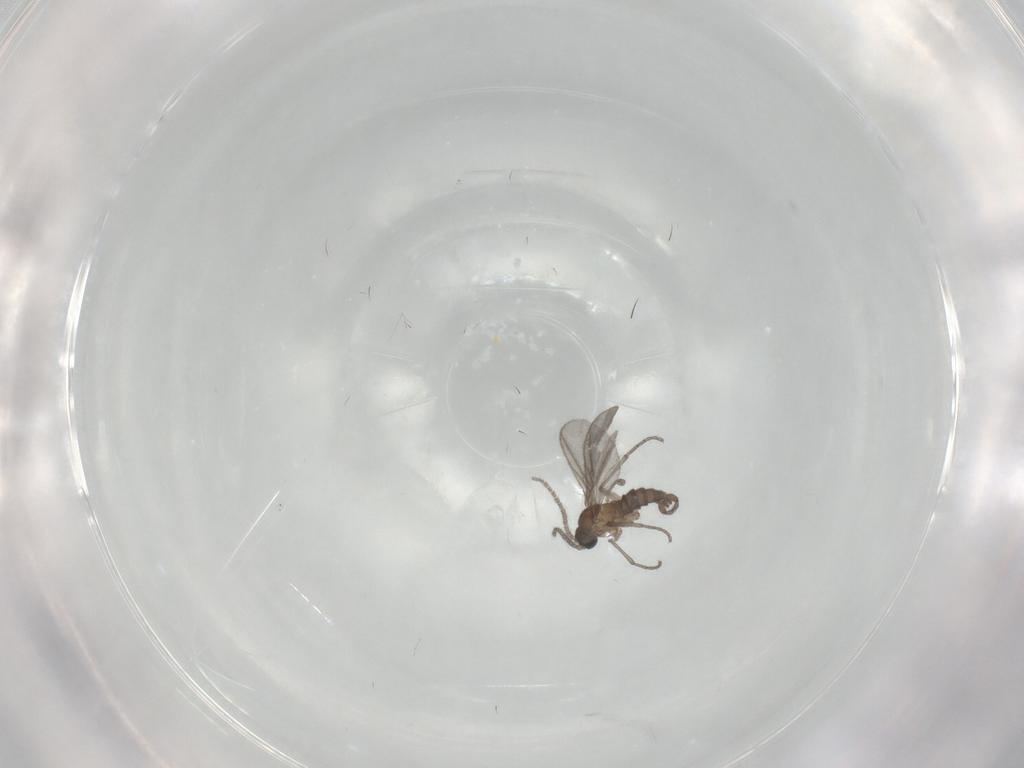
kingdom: Animalia
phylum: Arthropoda
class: Insecta
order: Diptera
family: Sciaridae
